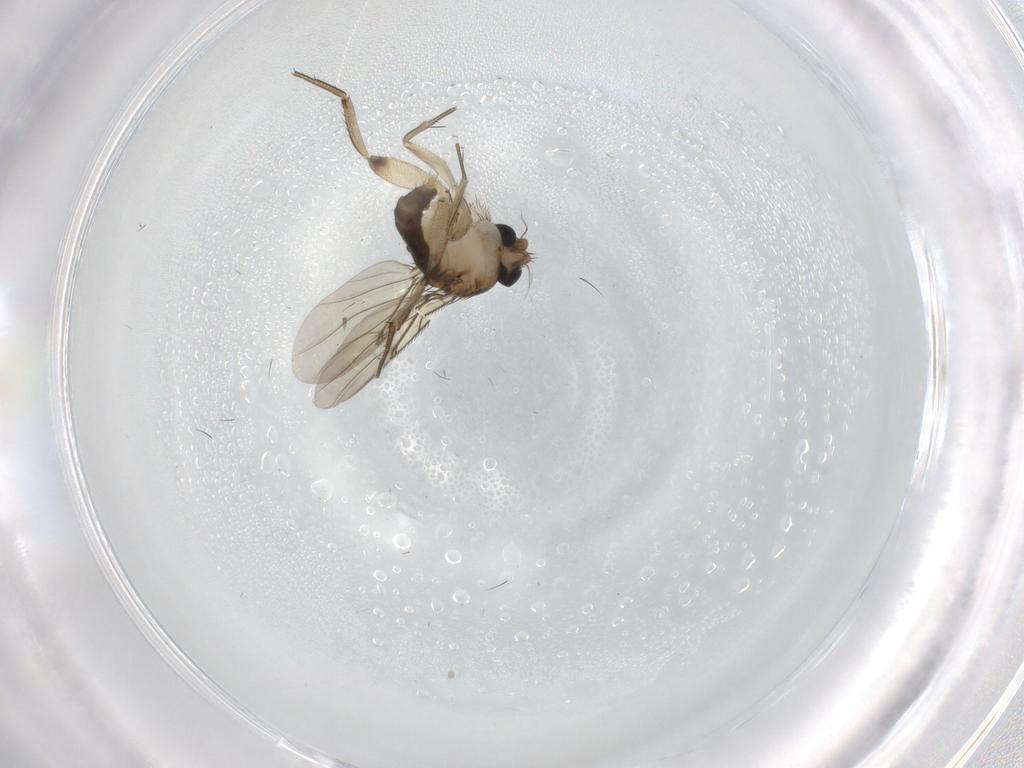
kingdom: Animalia
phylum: Arthropoda
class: Insecta
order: Diptera
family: Phoridae
